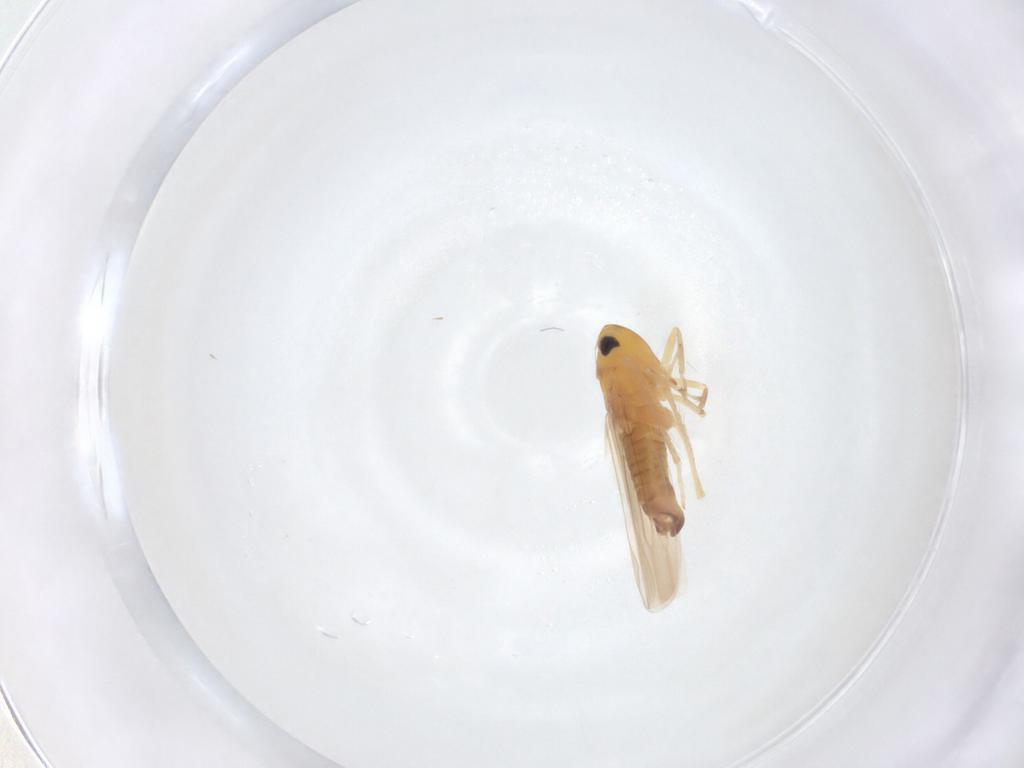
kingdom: Animalia
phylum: Arthropoda
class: Insecta
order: Hemiptera
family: Cicadellidae
